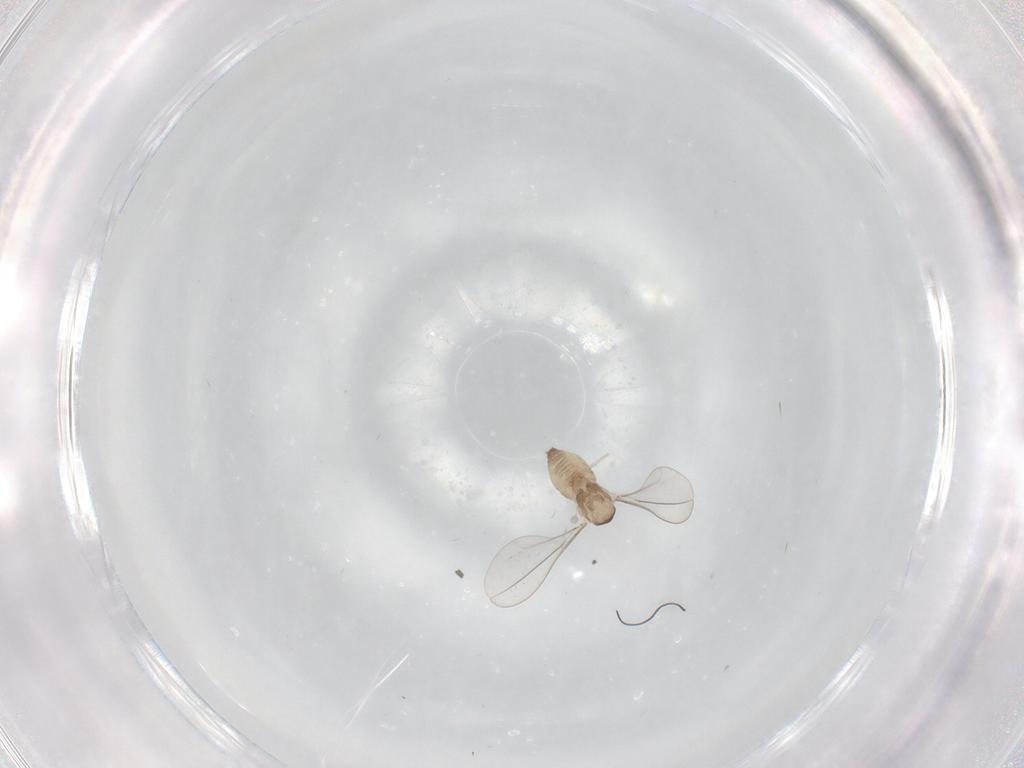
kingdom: Animalia
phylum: Arthropoda
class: Insecta
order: Diptera
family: Cecidomyiidae
